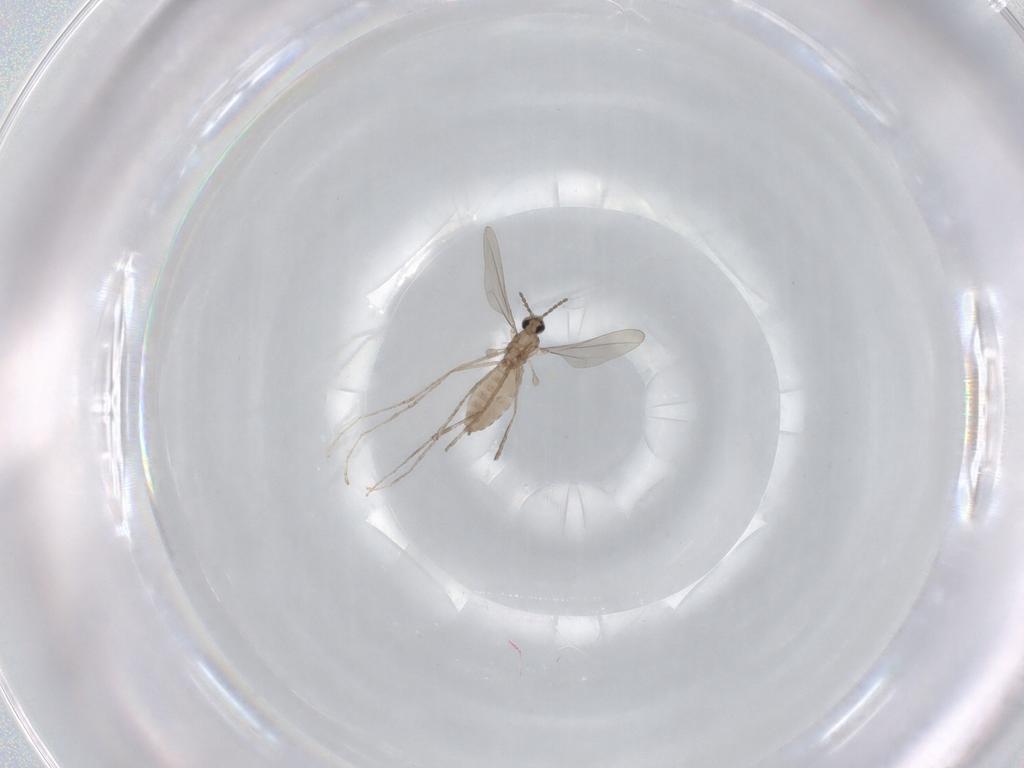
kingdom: Animalia
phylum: Arthropoda
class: Insecta
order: Diptera
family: Cecidomyiidae
